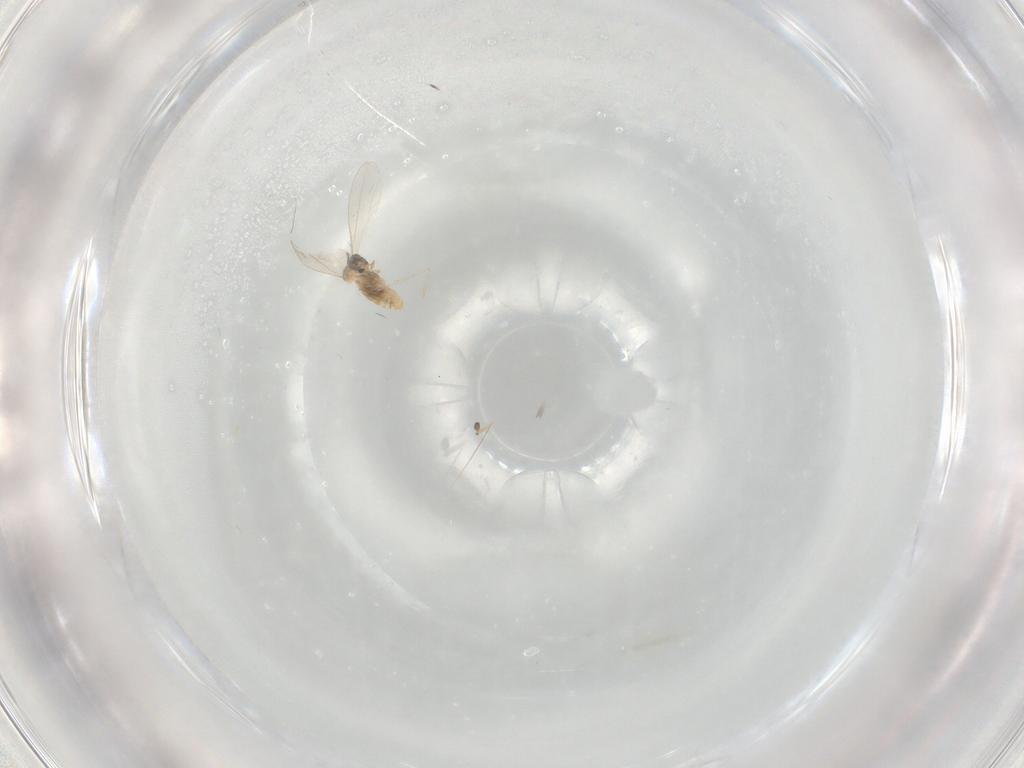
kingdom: Animalia
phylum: Arthropoda
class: Insecta
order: Diptera
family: Cecidomyiidae
